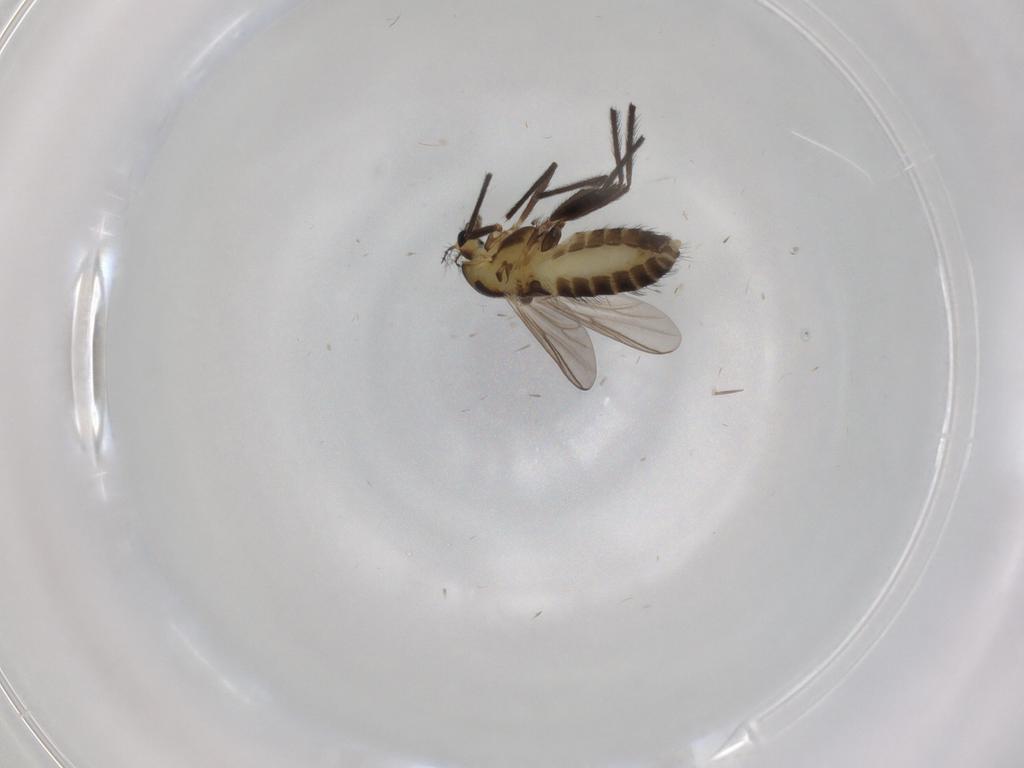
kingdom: Animalia
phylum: Arthropoda
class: Insecta
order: Diptera
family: Chironomidae
